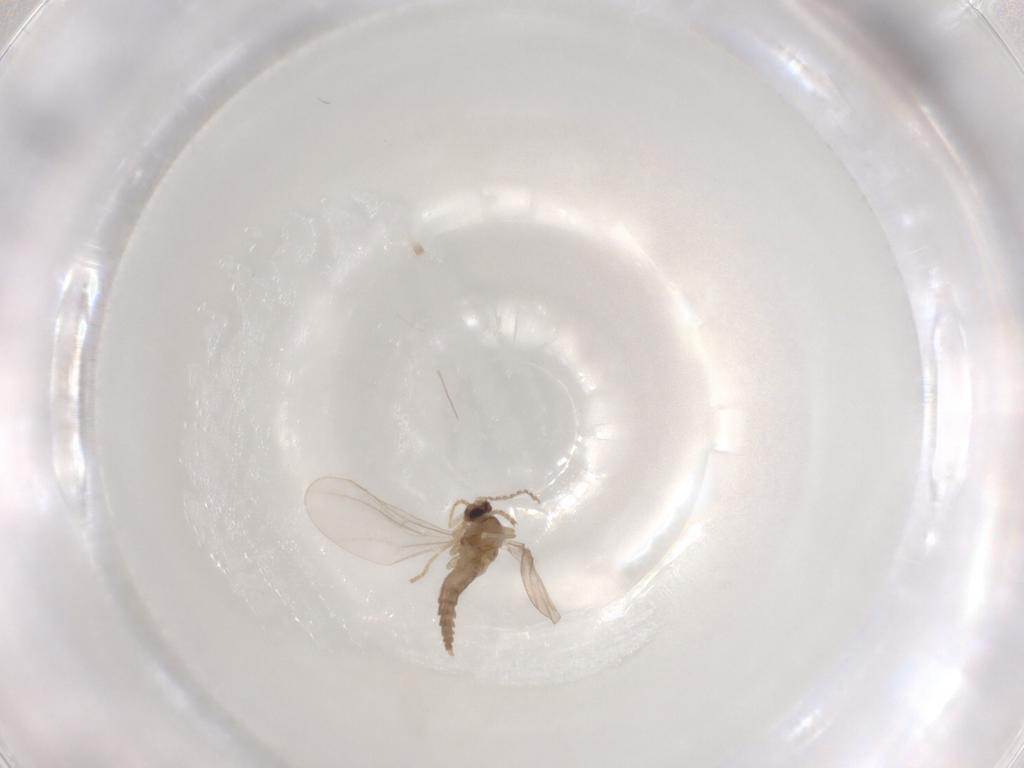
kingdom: Animalia
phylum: Arthropoda
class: Insecta
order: Diptera
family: Cecidomyiidae
